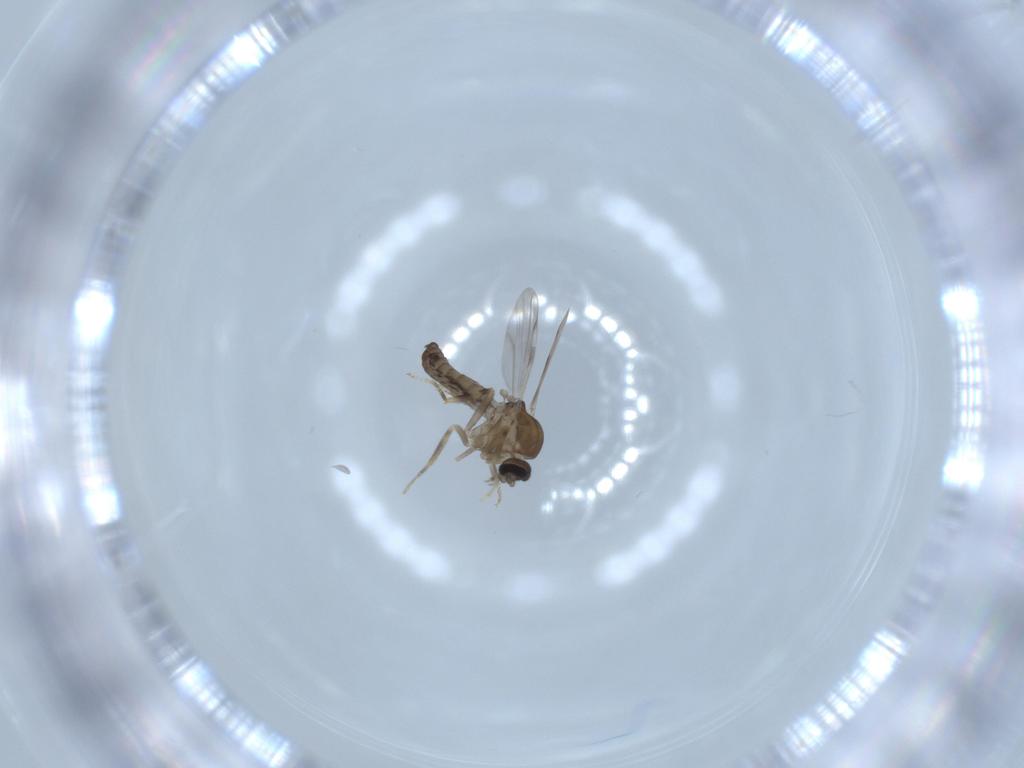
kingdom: Animalia
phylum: Arthropoda
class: Insecta
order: Diptera
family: Ceratopogonidae
